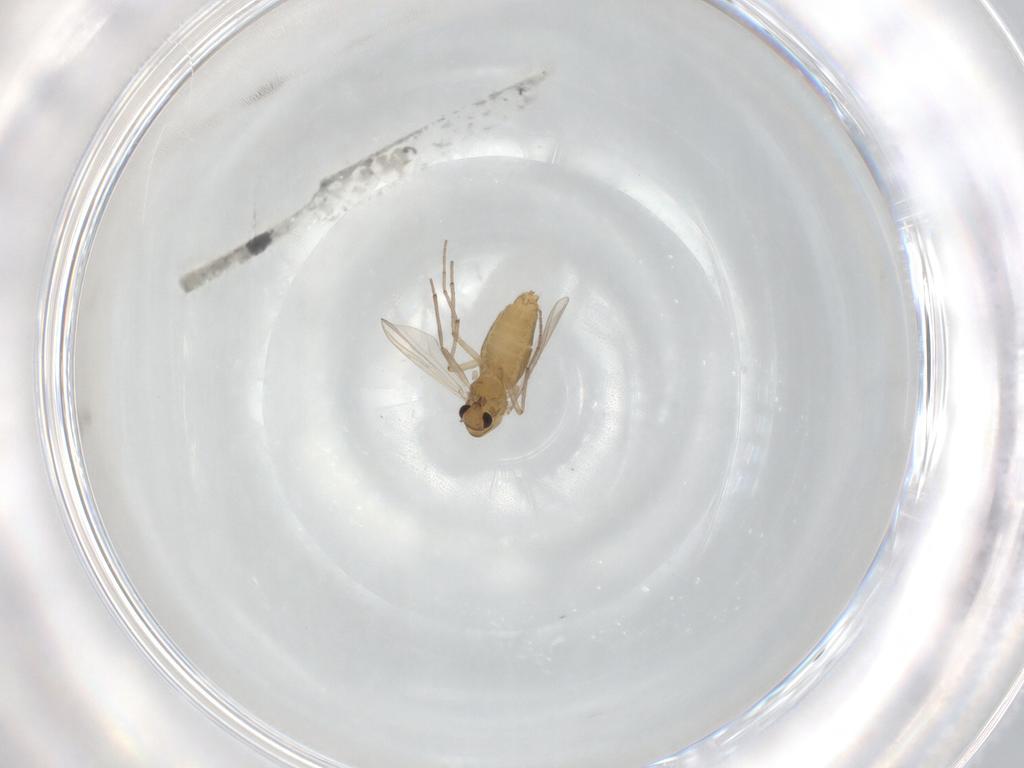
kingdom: Animalia
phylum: Arthropoda
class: Insecta
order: Diptera
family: Chironomidae
